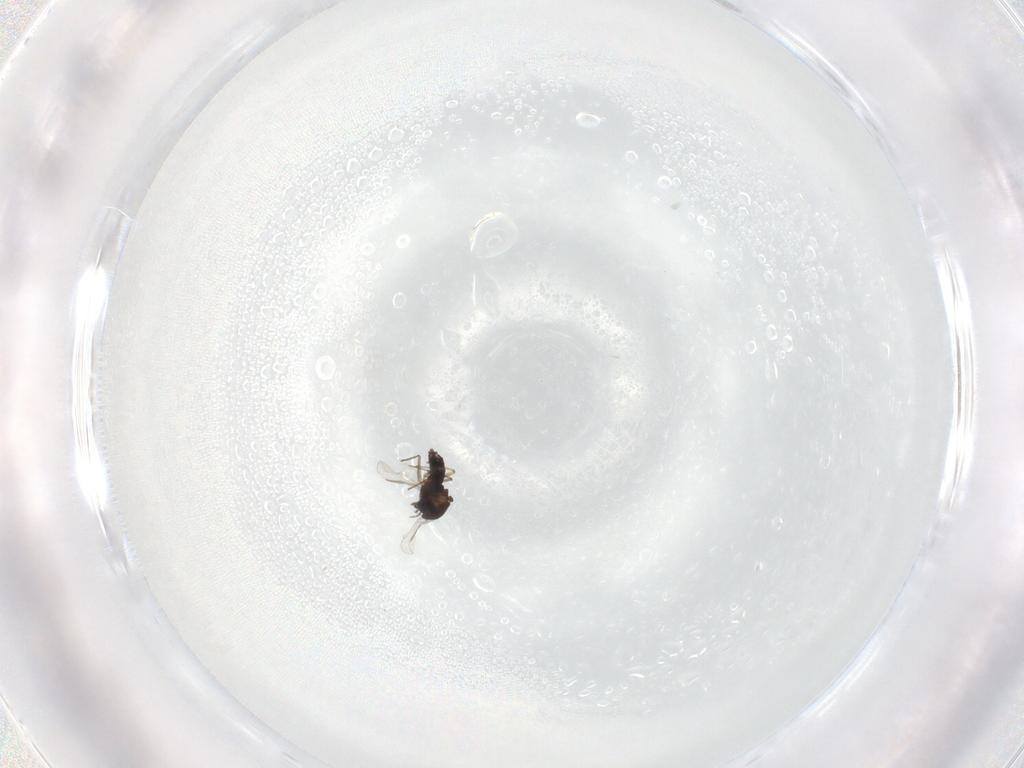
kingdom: Animalia
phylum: Arthropoda
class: Insecta
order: Diptera
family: Chironomidae
